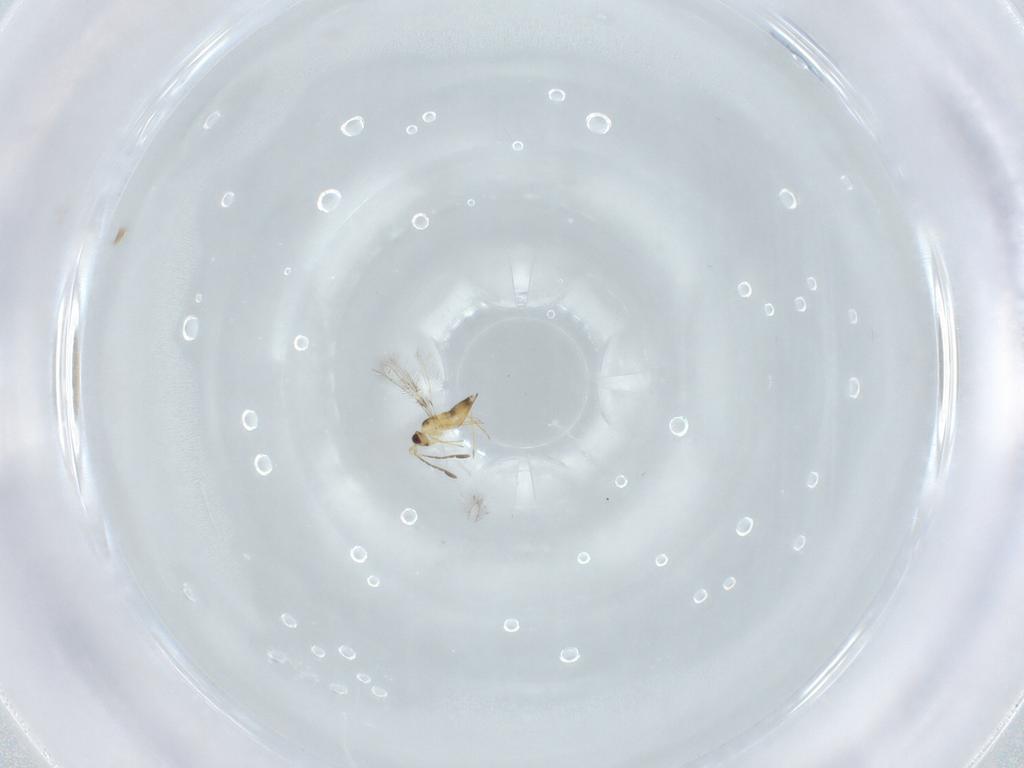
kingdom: Animalia
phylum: Arthropoda
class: Insecta
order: Hymenoptera
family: Mymaridae
